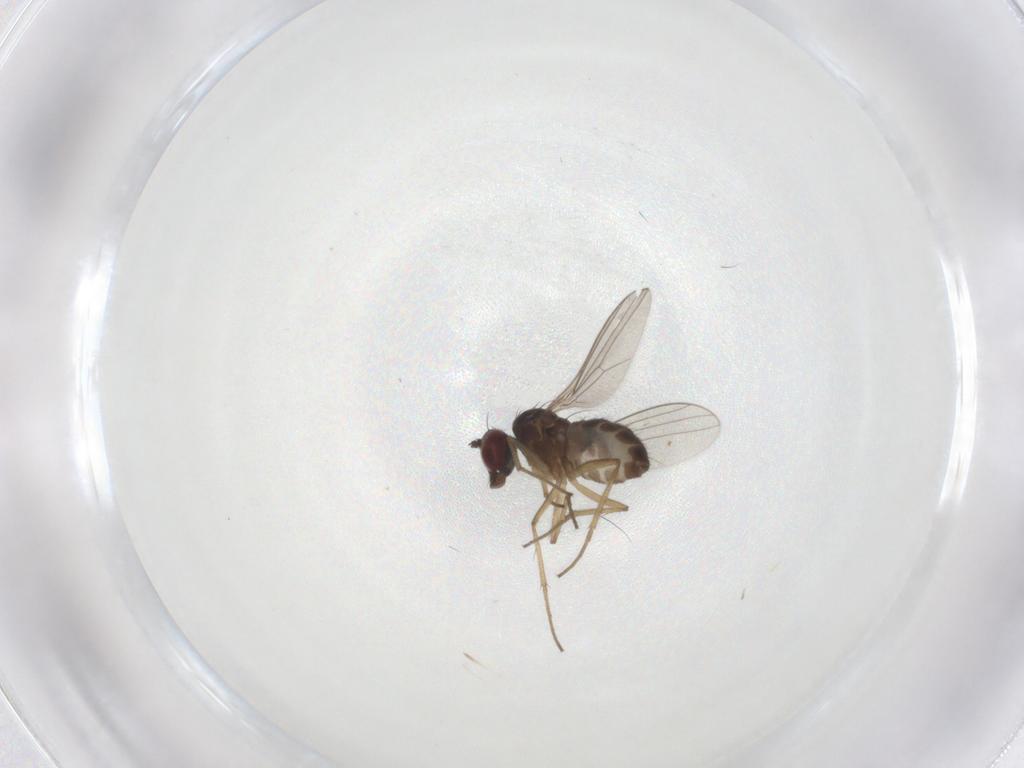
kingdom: Animalia
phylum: Arthropoda
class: Insecta
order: Diptera
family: Dolichopodidae
